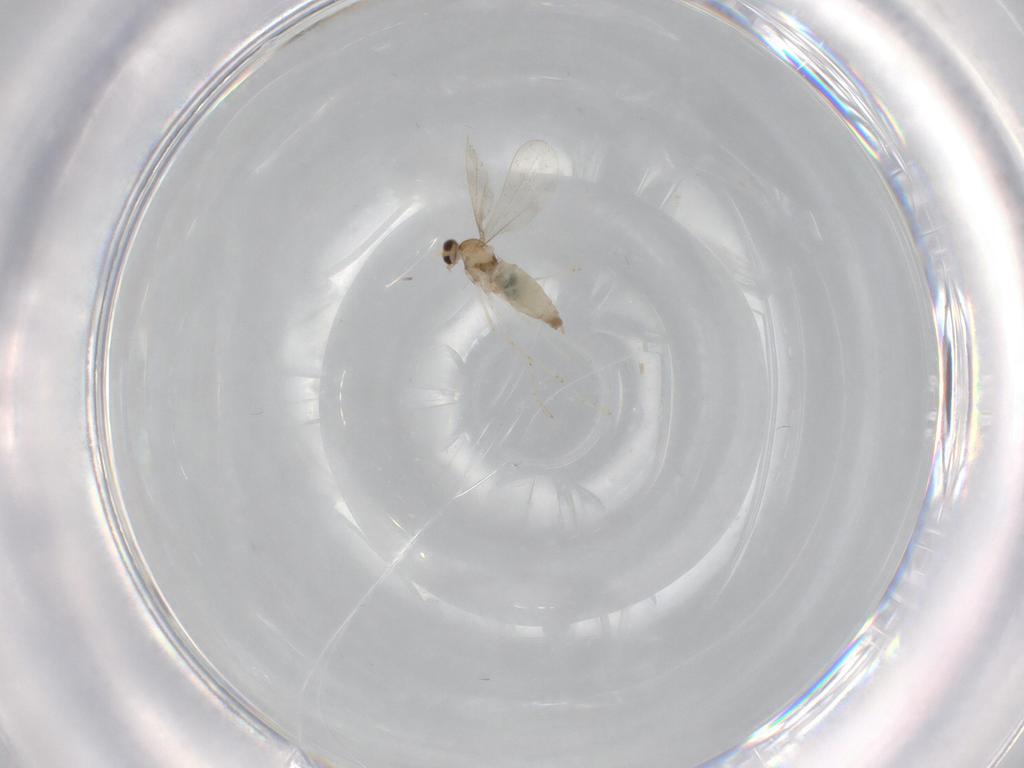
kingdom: Animalia
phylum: Arthropoda
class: Insecta
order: Diptera
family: Cecidomyiidae
